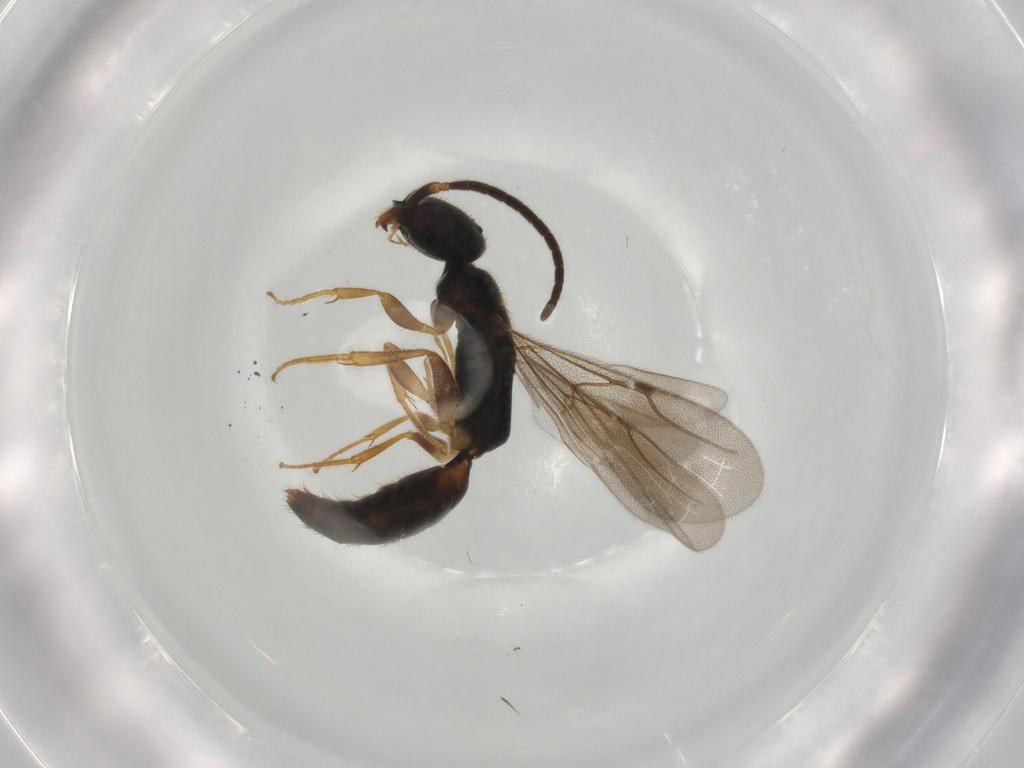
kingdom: Animalia
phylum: Arthropoda
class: Insecta
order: Hymenoptera
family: Bethylidae
